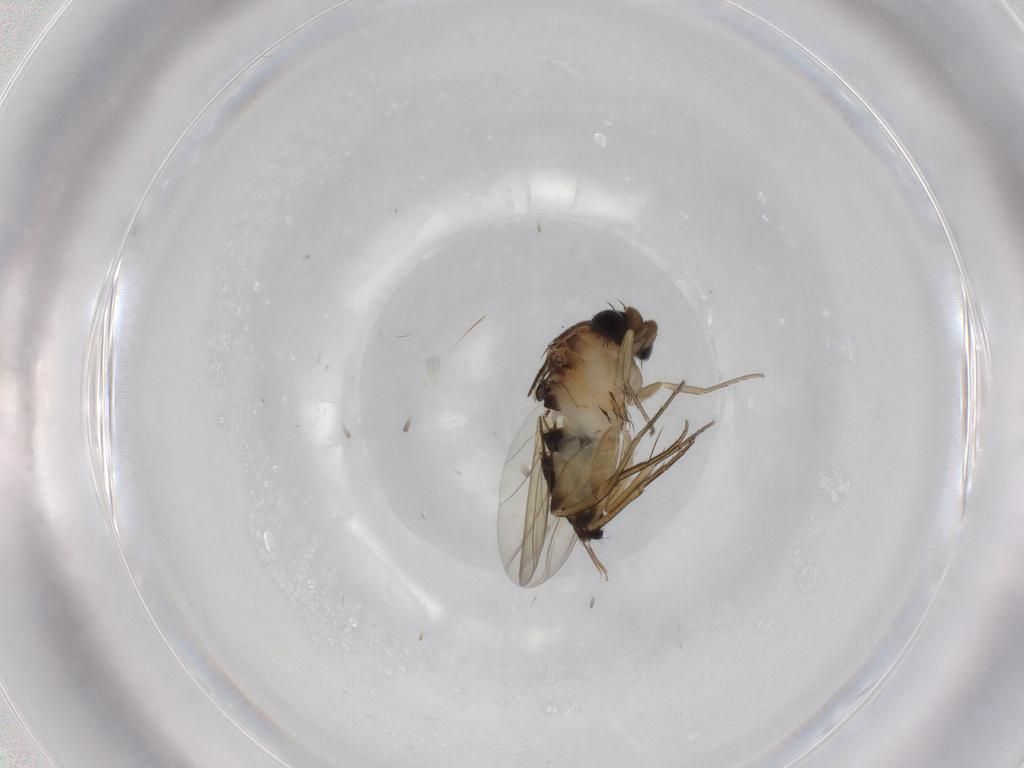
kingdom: Animalia
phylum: Arthropoda
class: Insecta
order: Diptera
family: Phoridae
